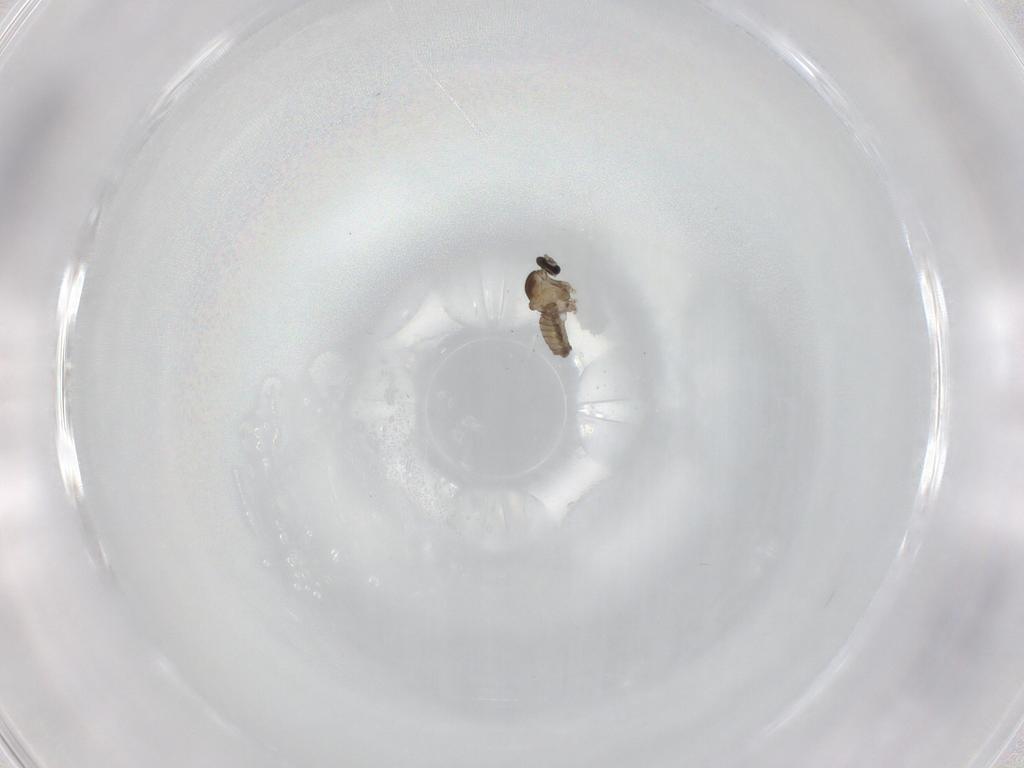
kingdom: Animalia
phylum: Arthropoda
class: Insecta
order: Diptera
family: Cecidomyiidae
